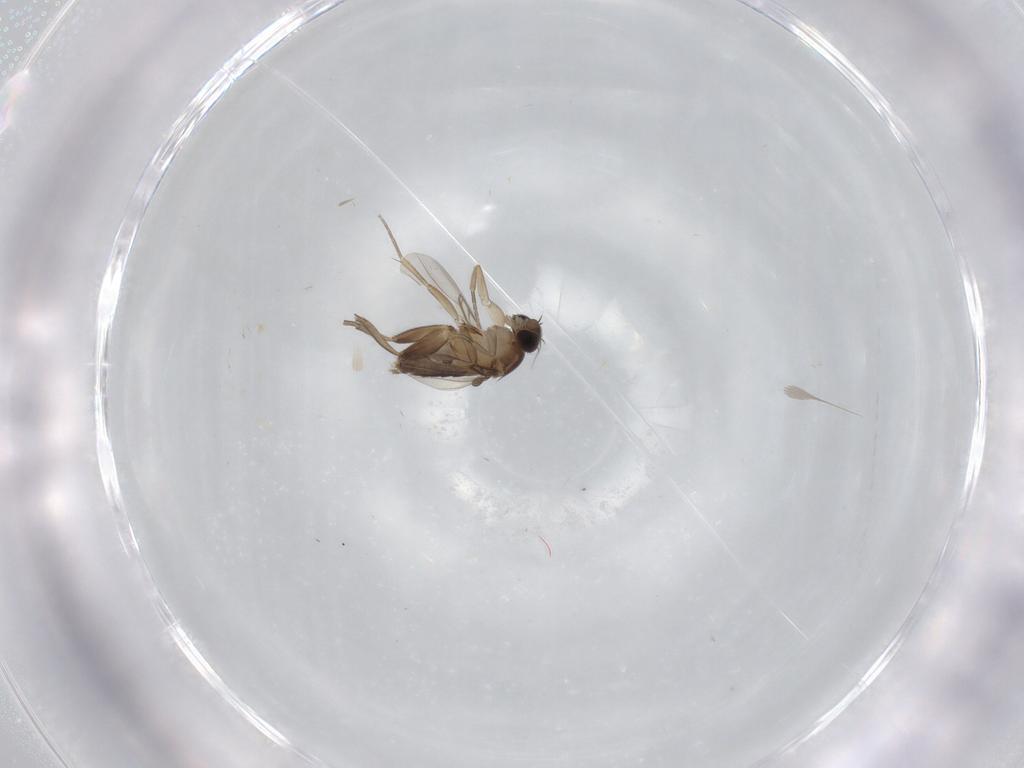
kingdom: Animalia
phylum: Arthropoda
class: Insecta
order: Diptera
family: Phoridae
